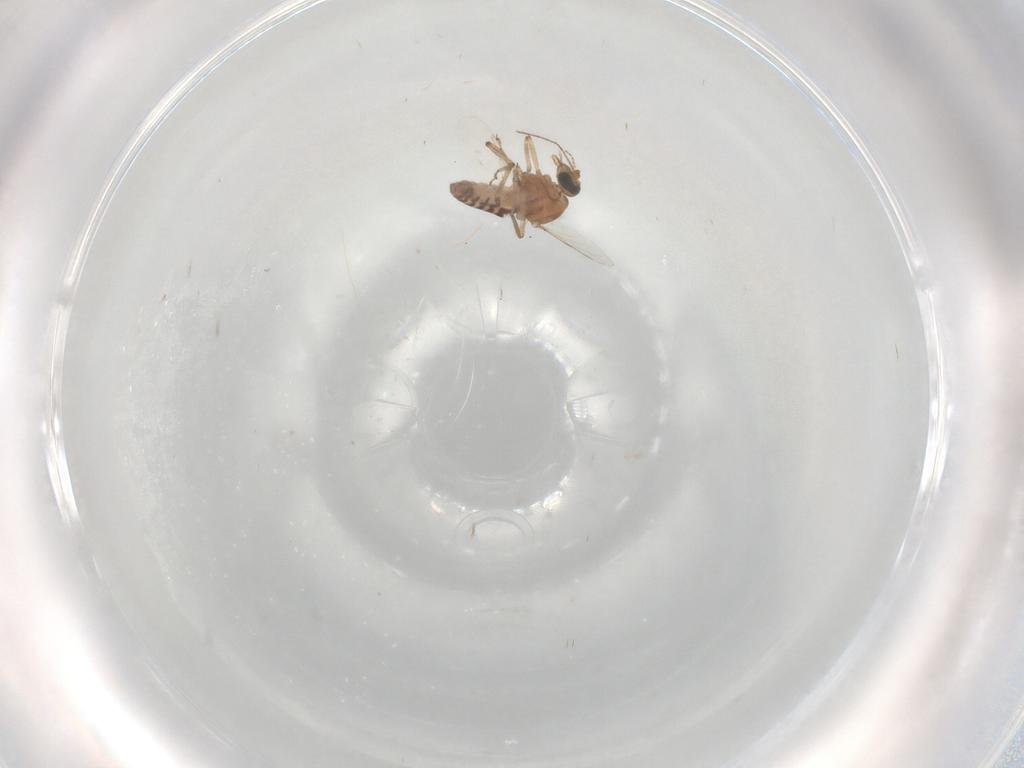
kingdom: Animalia
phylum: Arthropoda
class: Insecta
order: Diptera
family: Ceratopogonidae
